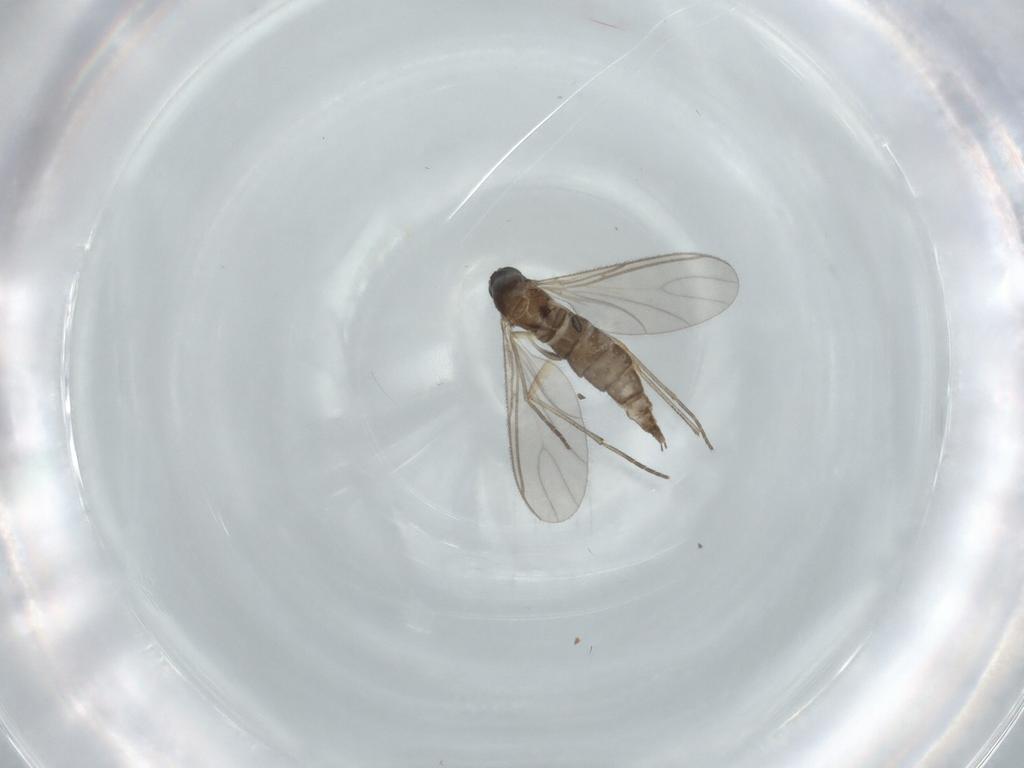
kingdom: Animalia
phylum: Arthropoda
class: Insecta
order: Diptera
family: Sciaridae
